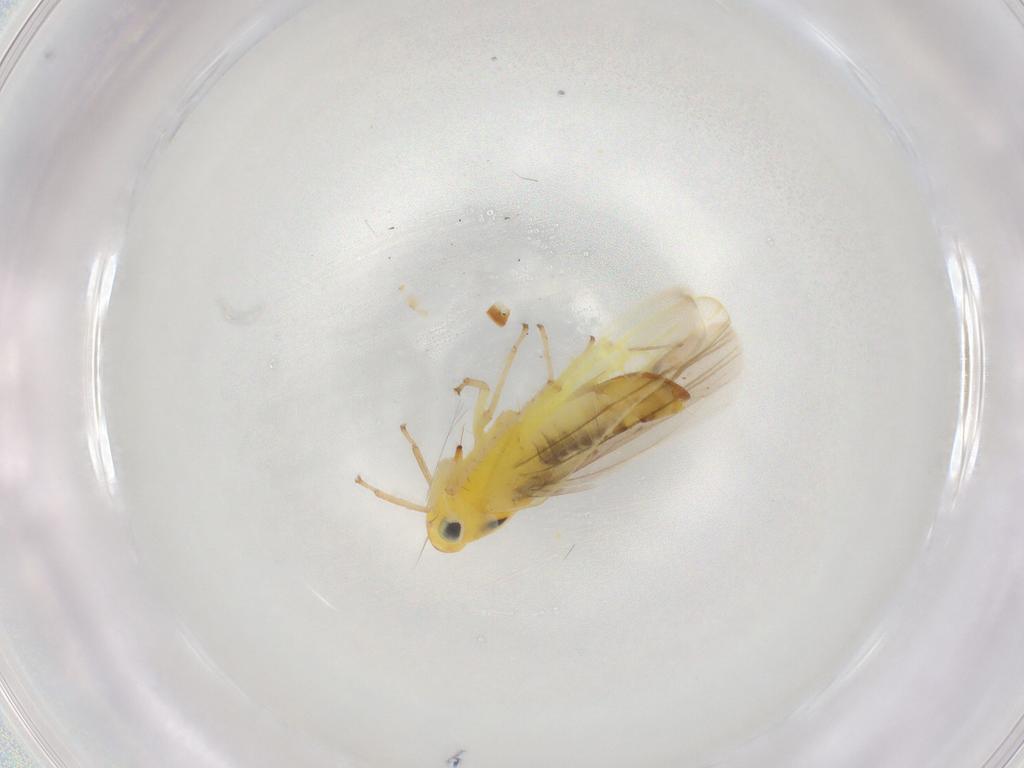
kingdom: Animalia
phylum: Arthropoda
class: Insecta
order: Hemiptera
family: Cicadellidae
